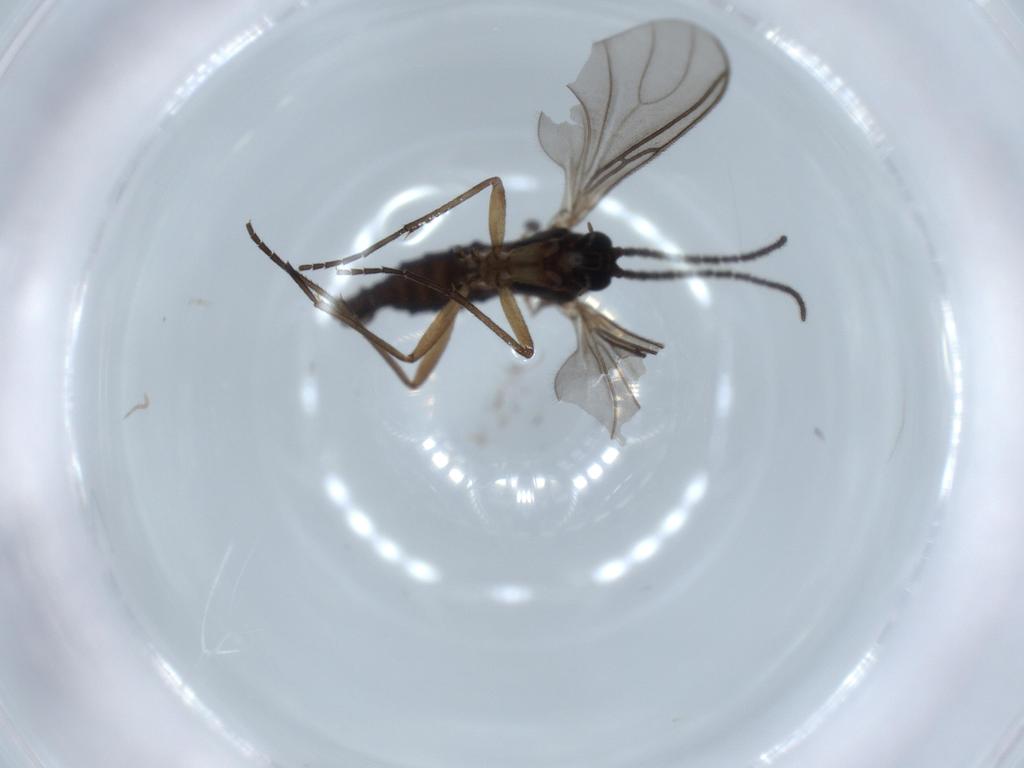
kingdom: Animalia
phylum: Arthropoda
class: Insecta
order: Diptera
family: Sciaridae
